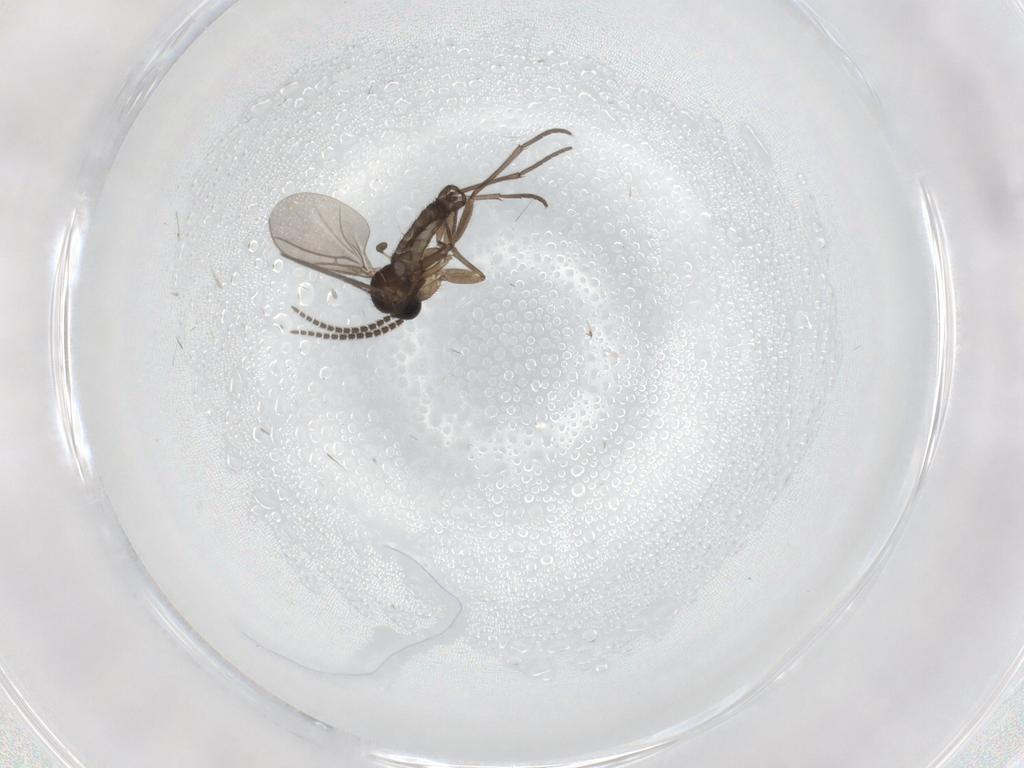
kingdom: Animalia
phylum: Arthropoda
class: Insecta
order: Diptera
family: Sciaridae
